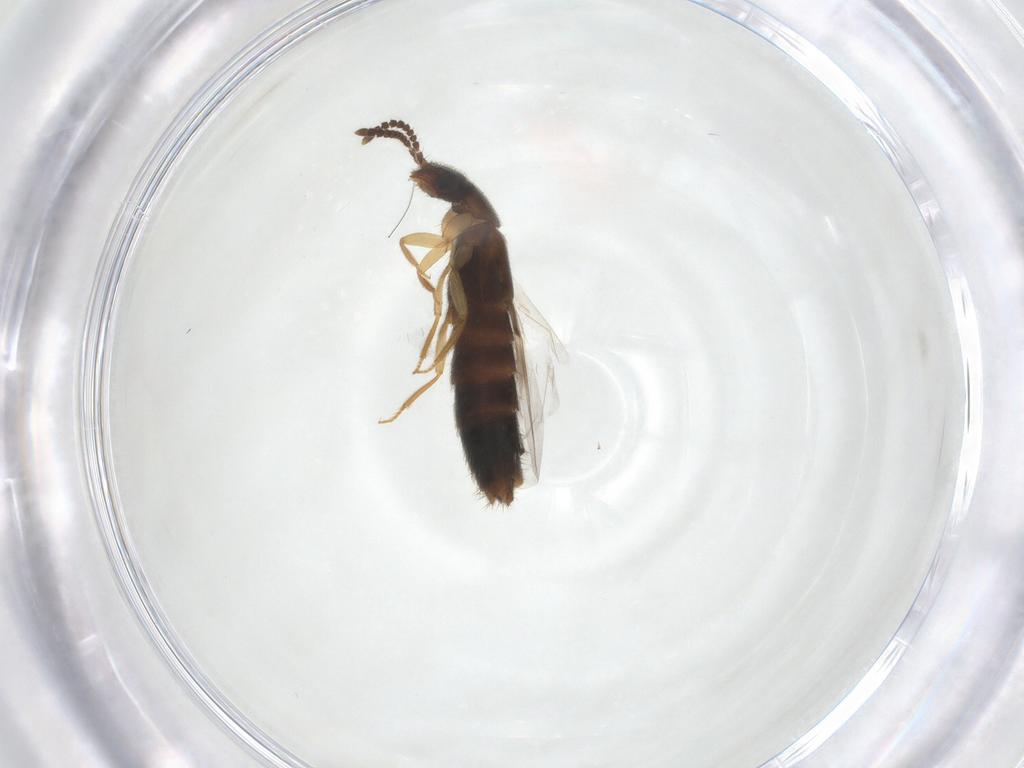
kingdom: Animalia
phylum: Arthropoda
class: Insecta
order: Coleoptera
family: Staphylinidae
